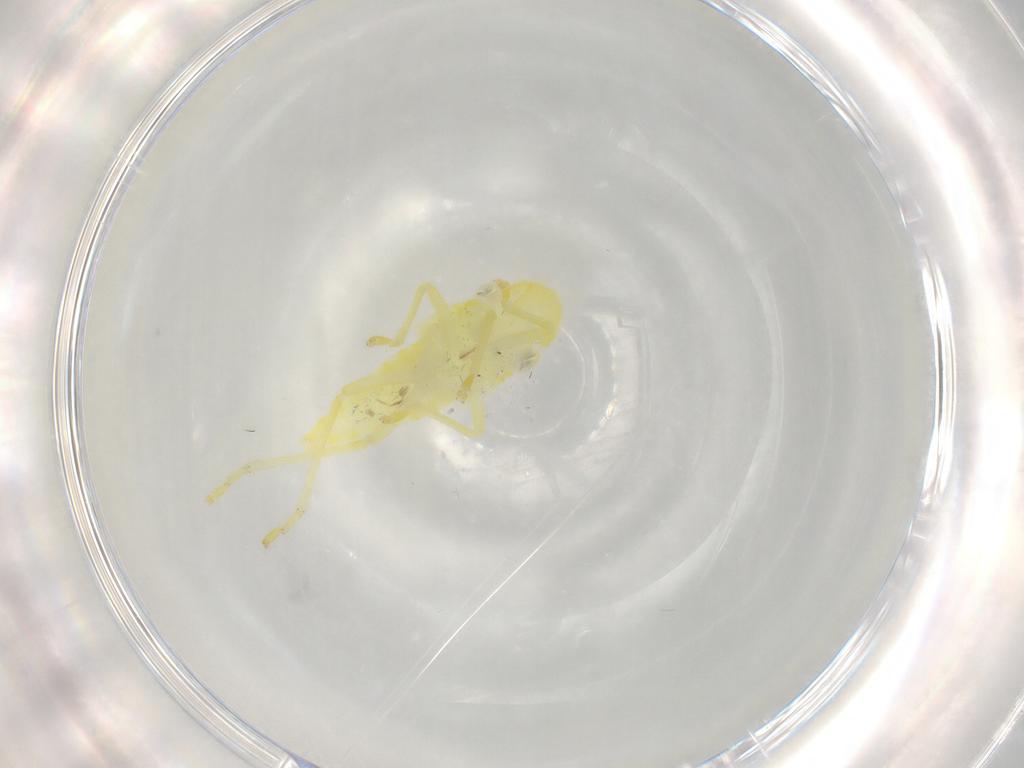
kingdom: Animalia
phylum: Arthropoda
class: Insecta
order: Hemiptera
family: Cicadellidae
